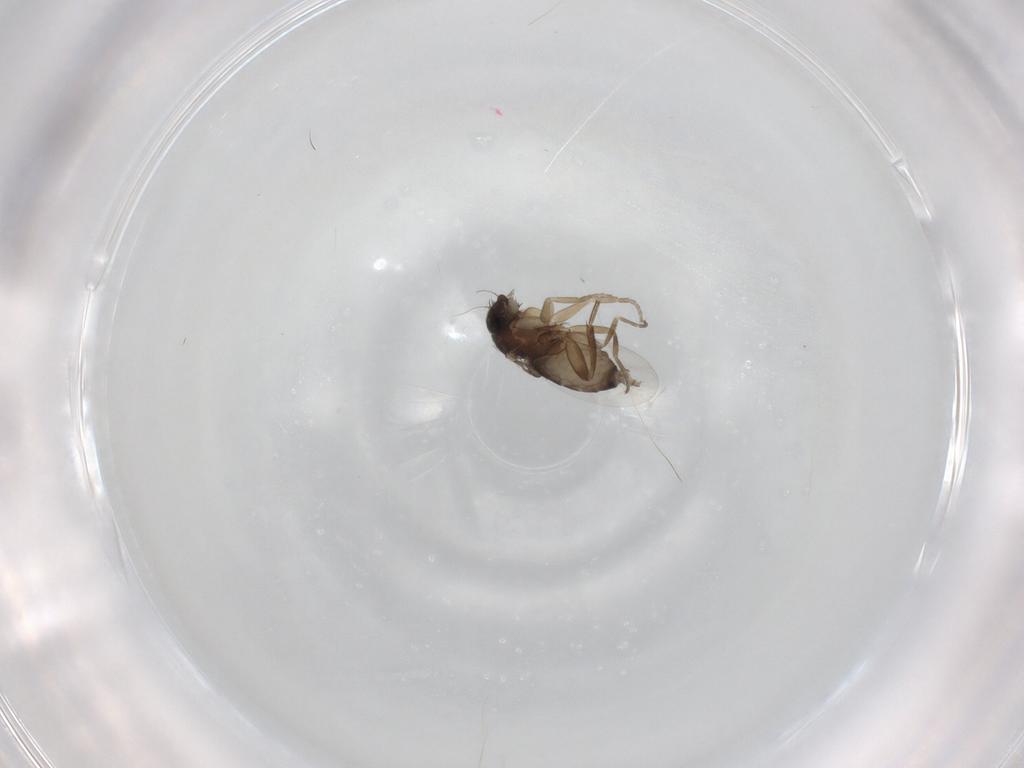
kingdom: Animalia
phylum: Arthropoda
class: Insecta
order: Diptera
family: Phoridae
